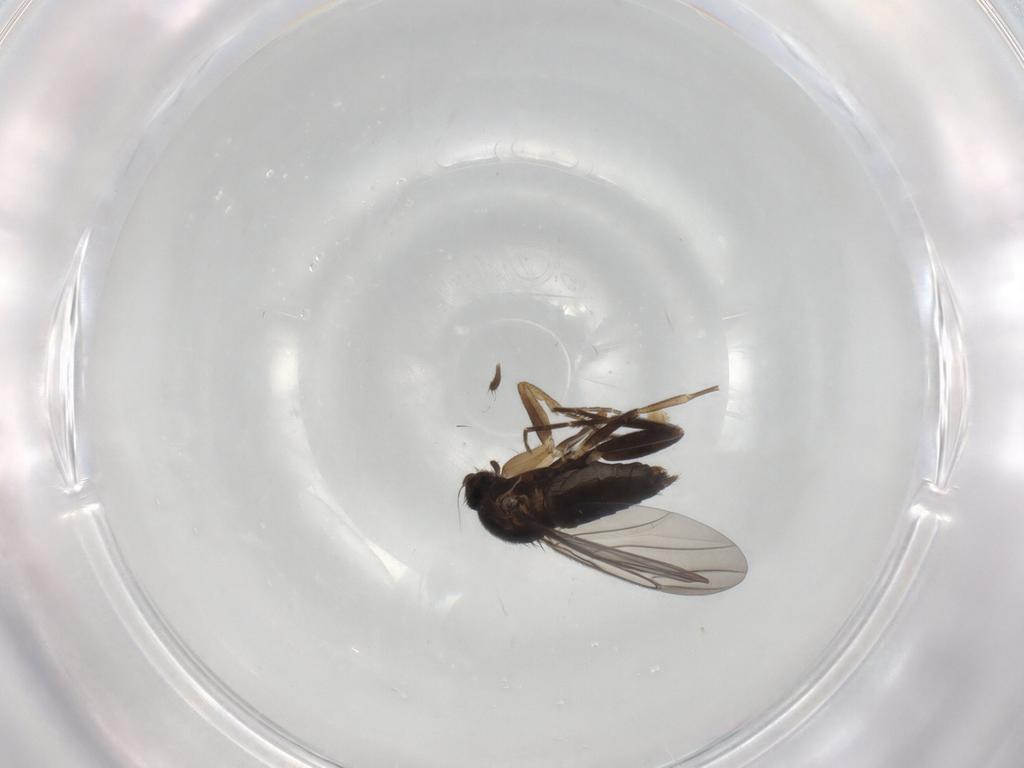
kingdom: Animalia
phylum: Arthropoda
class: Insecta
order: Diptera
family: Phoridae
